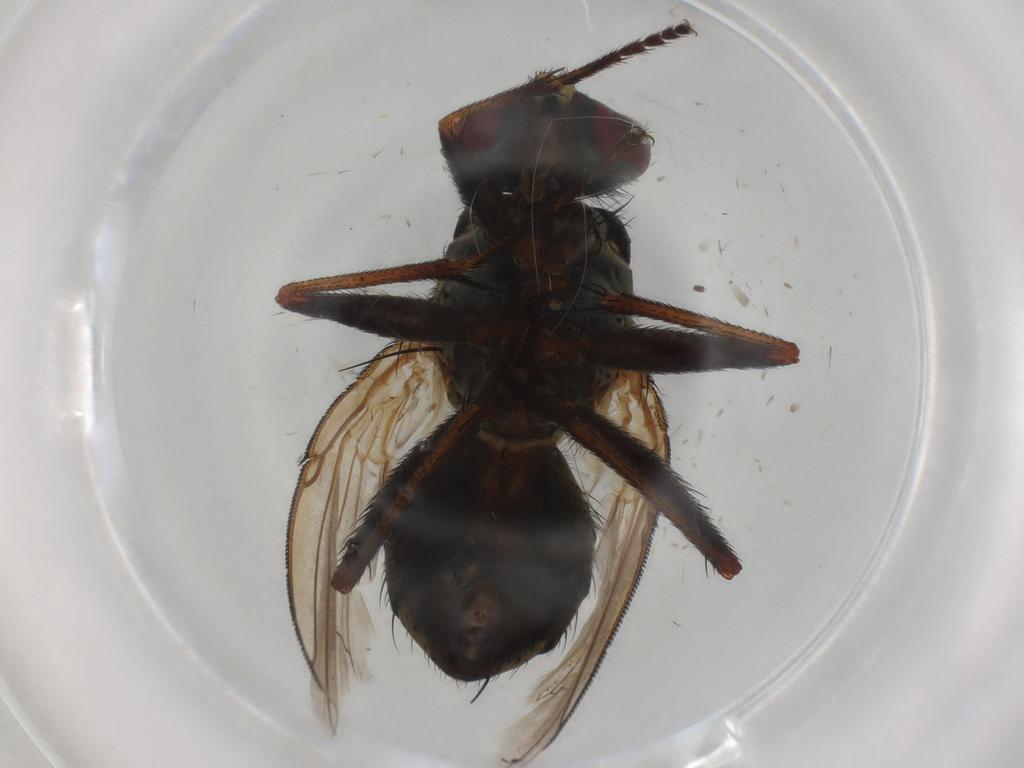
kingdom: Animalia
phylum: Arthropoda
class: Insecta
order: Diptera
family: Muscidae
